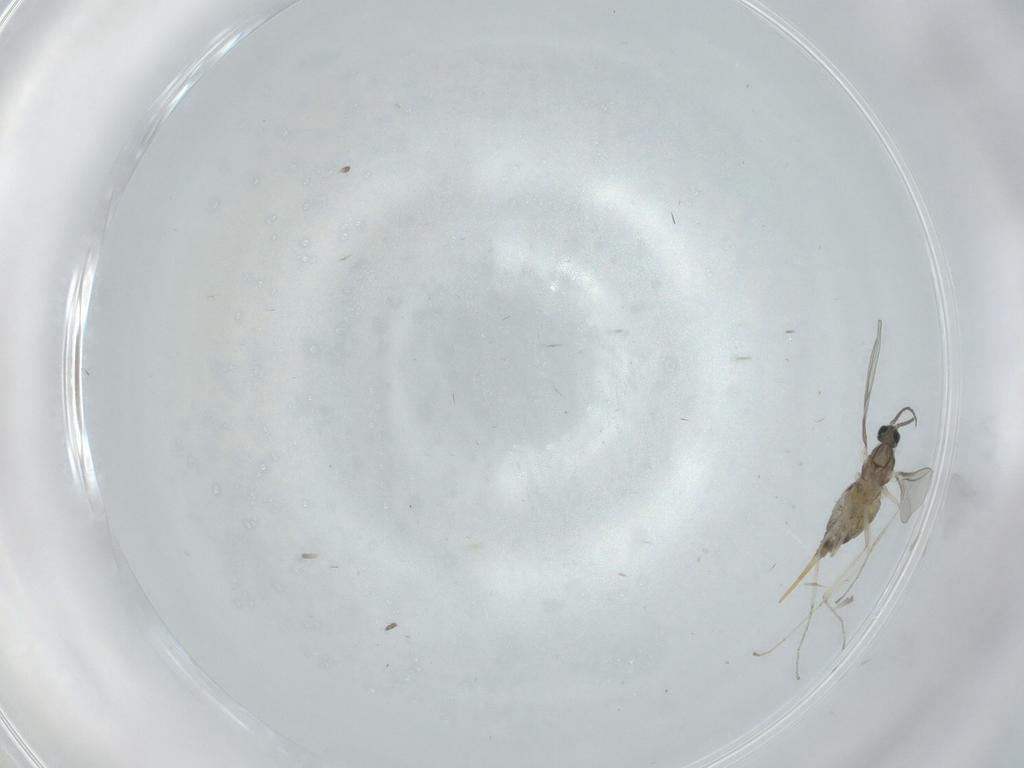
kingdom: Animalia
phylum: Arthropoda
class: Insecta
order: Diptera
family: Cecidomyiidae
